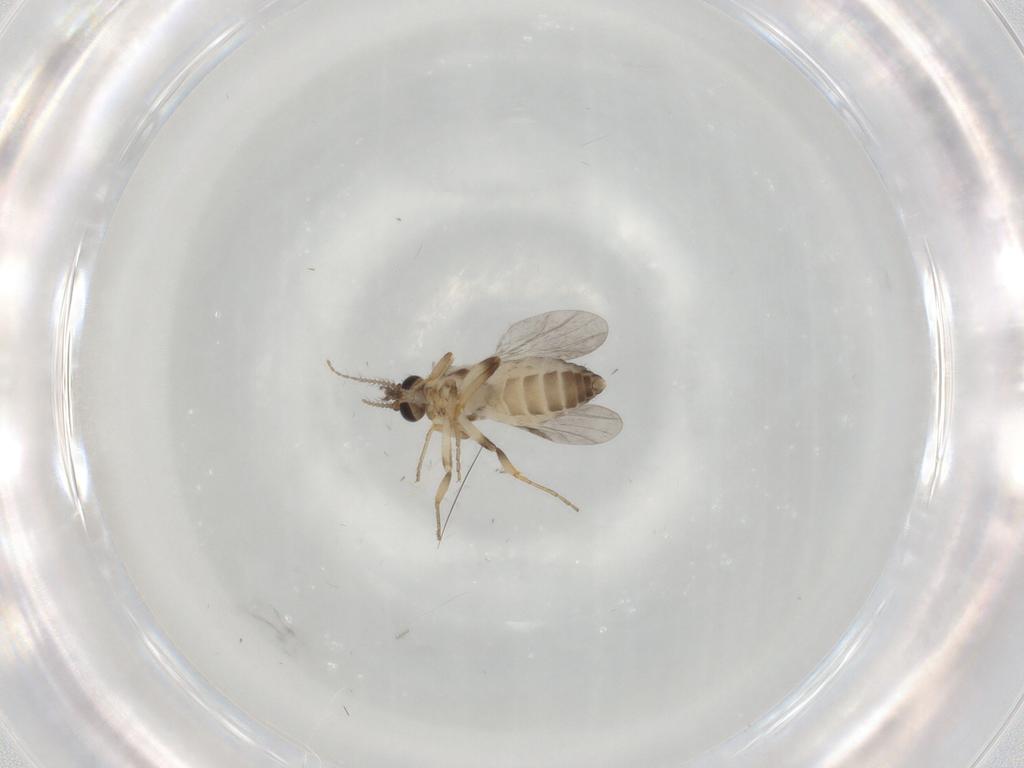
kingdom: Animalia
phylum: Arthropoda
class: Insecta
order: Diptera
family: Ceratopogonidae
